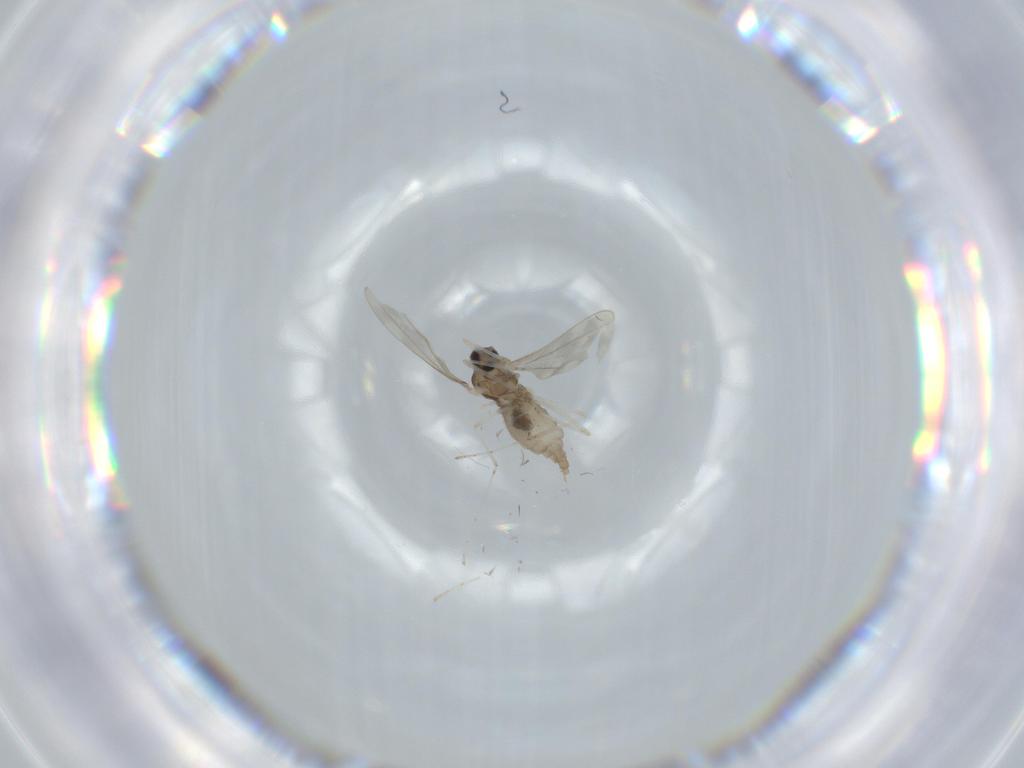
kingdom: Animalia
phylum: Arthropoda
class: Insecta
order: Diptera
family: Cecidomyiidae
